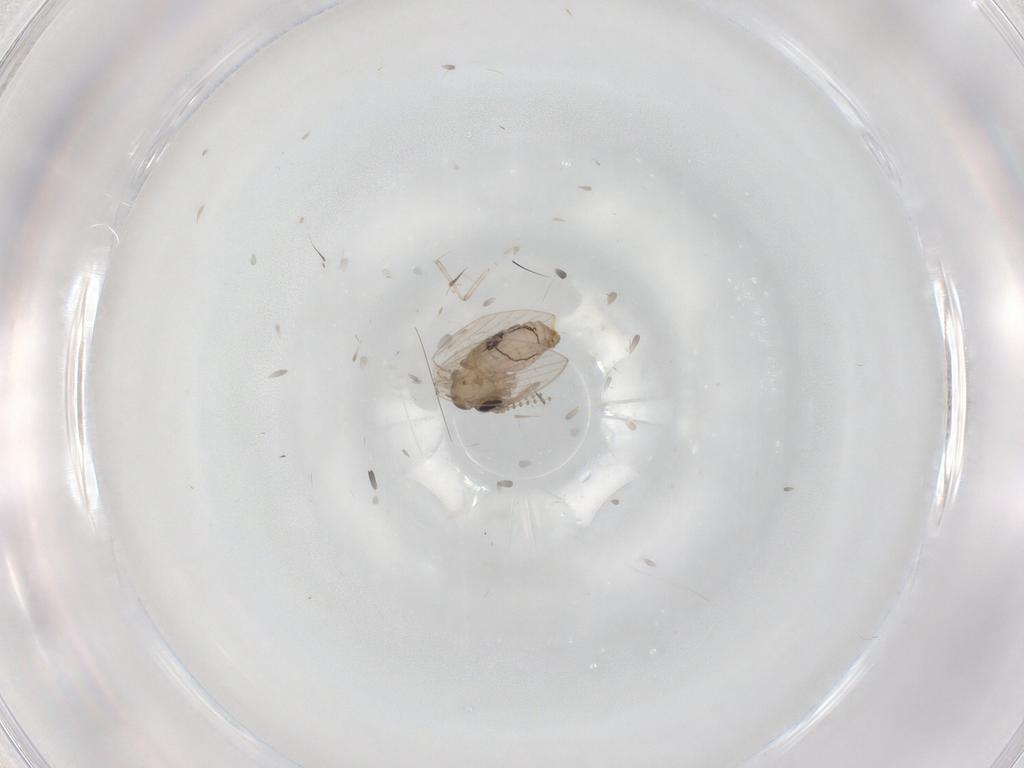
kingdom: Animalia
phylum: Arthropoda
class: Insecta
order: Diptera
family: Psychodidae
